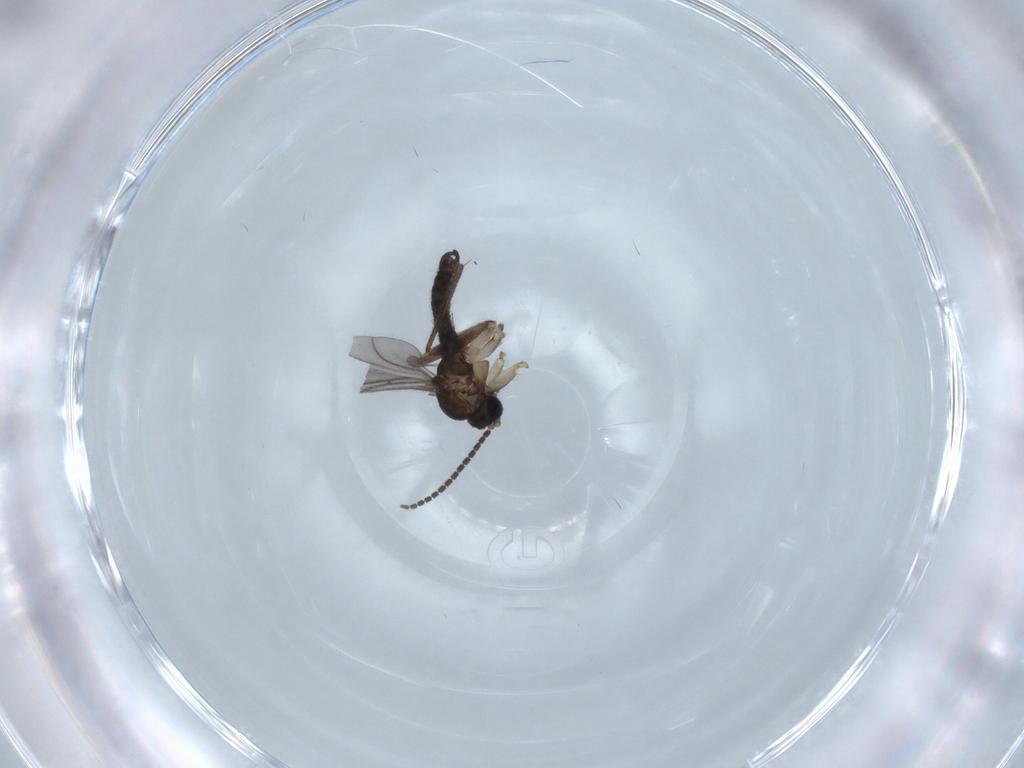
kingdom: Animalia
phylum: Arthropoda
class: Insecta
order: Diptera
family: Sciaridae
